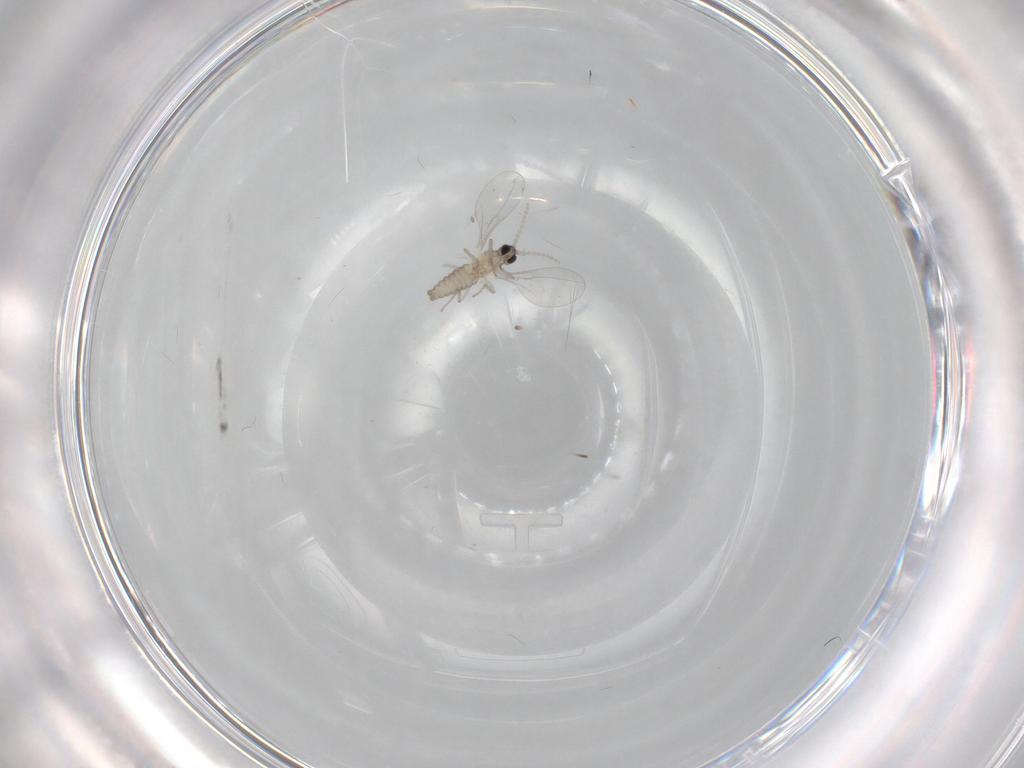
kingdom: Animalia
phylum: Arthropoda
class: Insecta
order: Diptera
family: Cecidomyiidae
